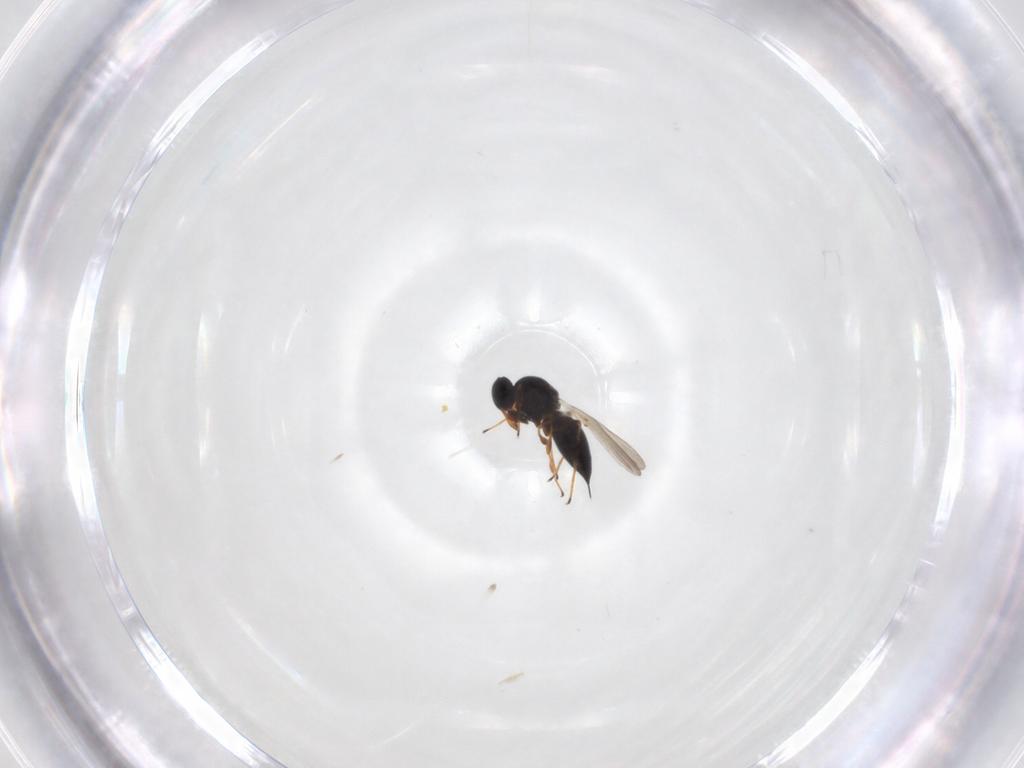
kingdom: Animalia
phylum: Arthropoda
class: Insecta
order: Hymenoptera
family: Platygastridae
